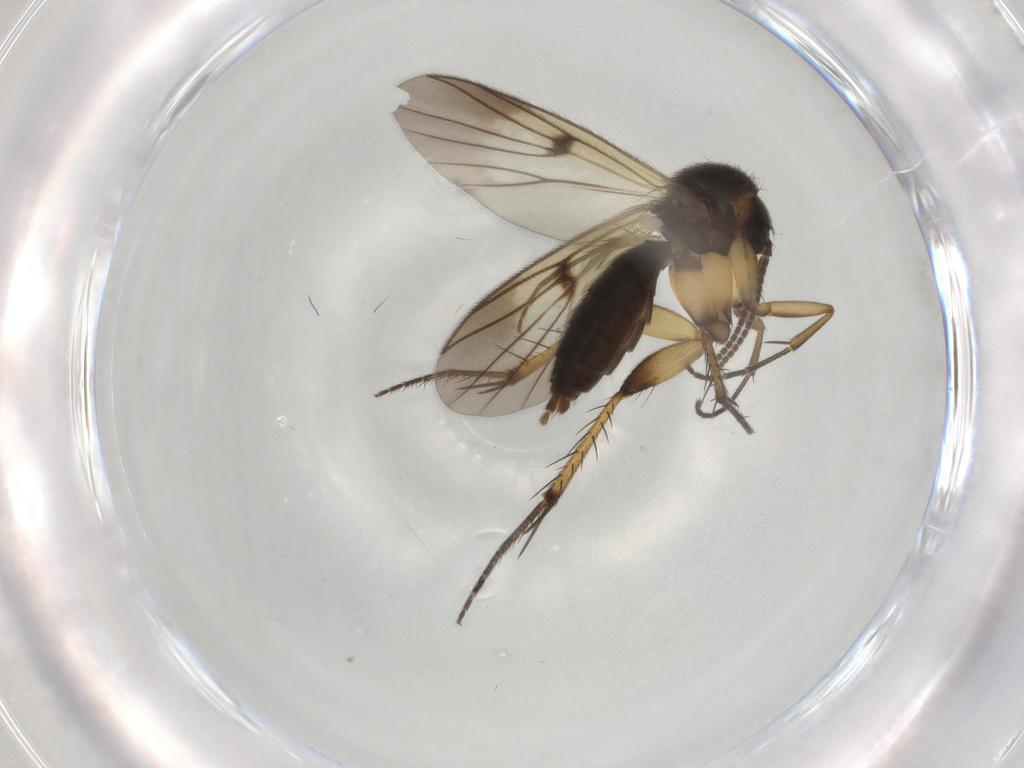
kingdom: Animalia
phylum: Arthropoda
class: Insecta
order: Diptera
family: Mycetophilidae
